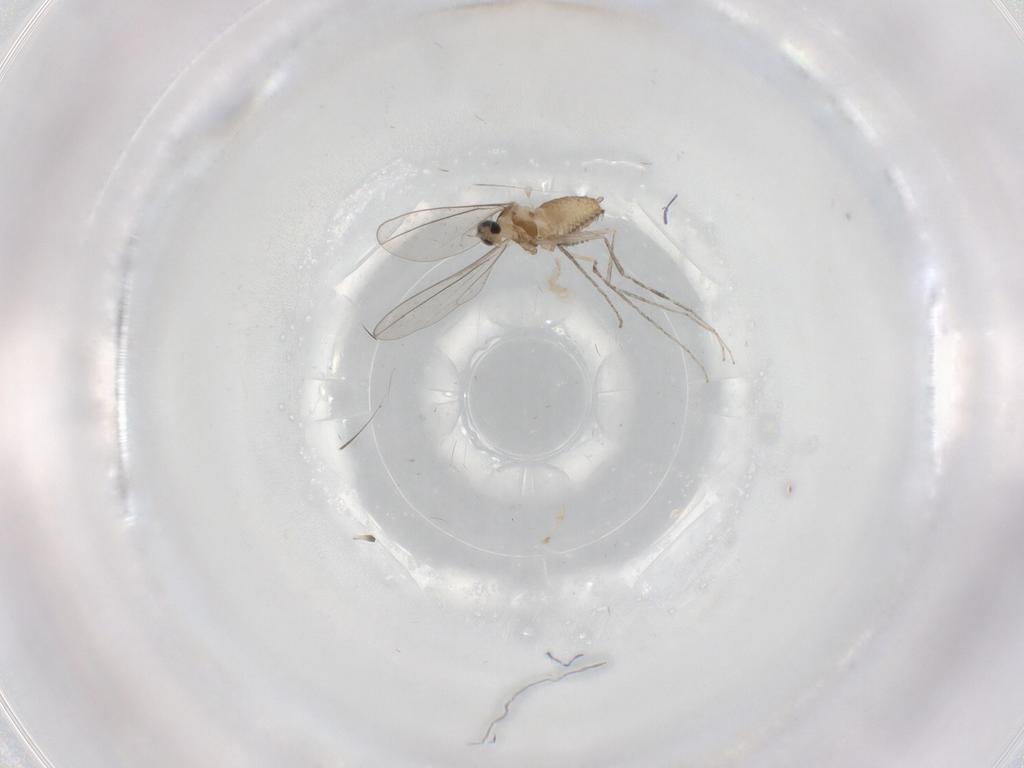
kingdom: Animalia
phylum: Arthropoda
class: Insecta
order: Diptera
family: Cecidomyiidae
